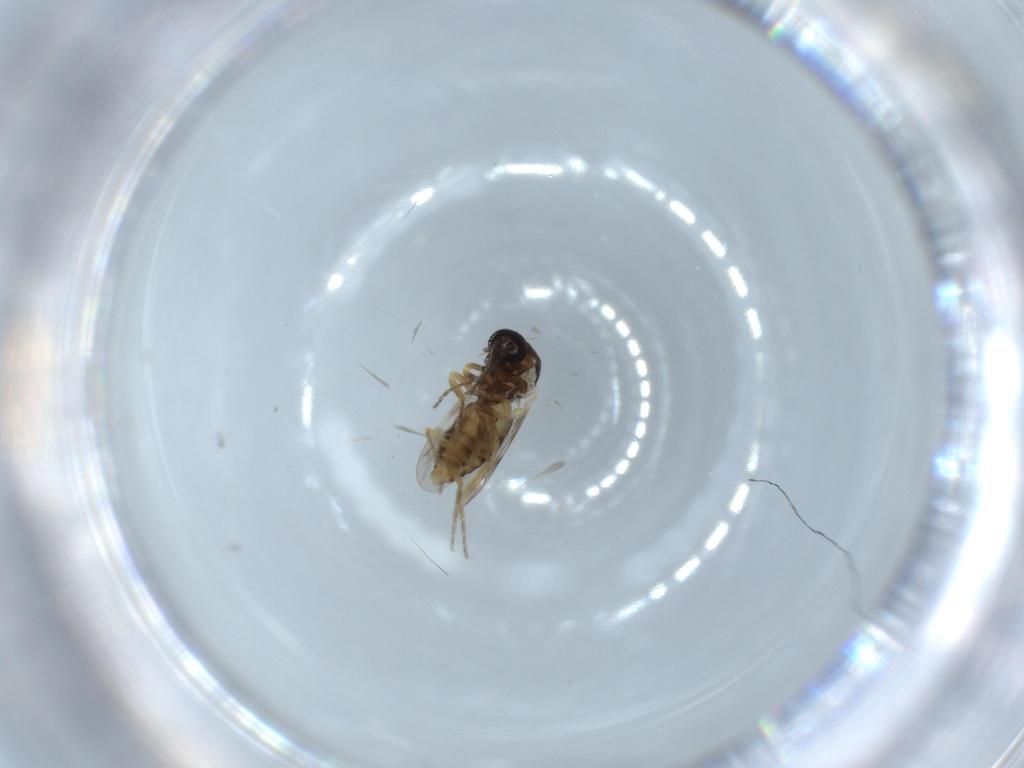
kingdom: Animalia
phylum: Arthropoda
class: Insecta
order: Diptera
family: Ceratopogonidae
